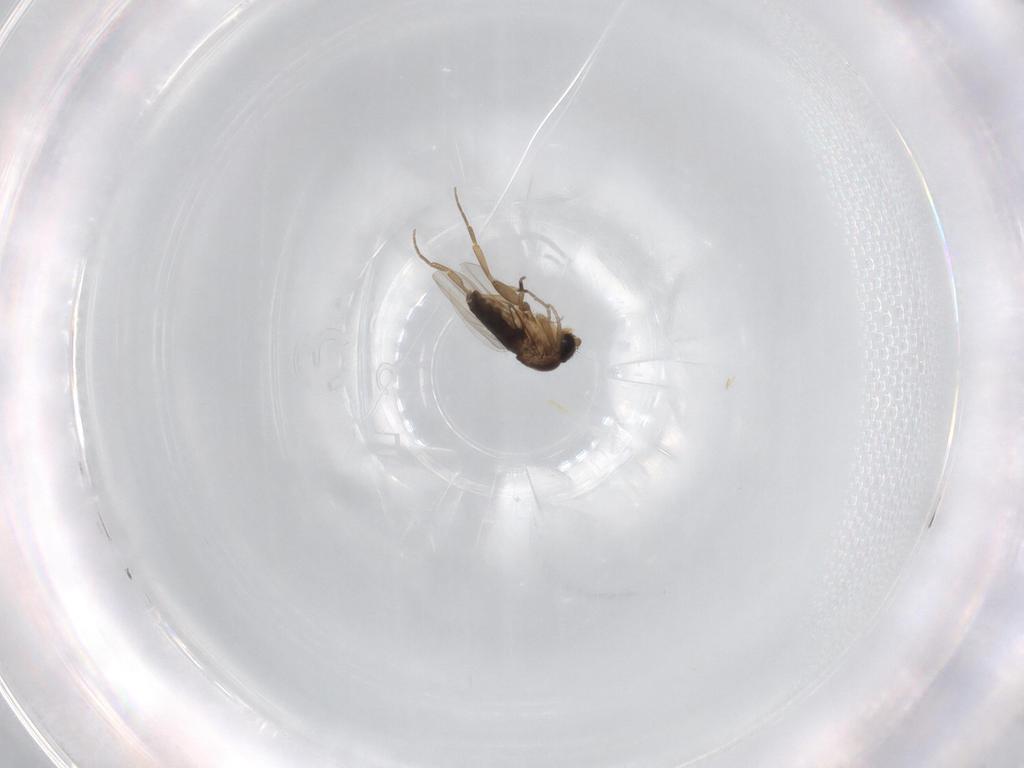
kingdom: Animalia
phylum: Arthropoda
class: Insecta
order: Diptera
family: Phoridae
